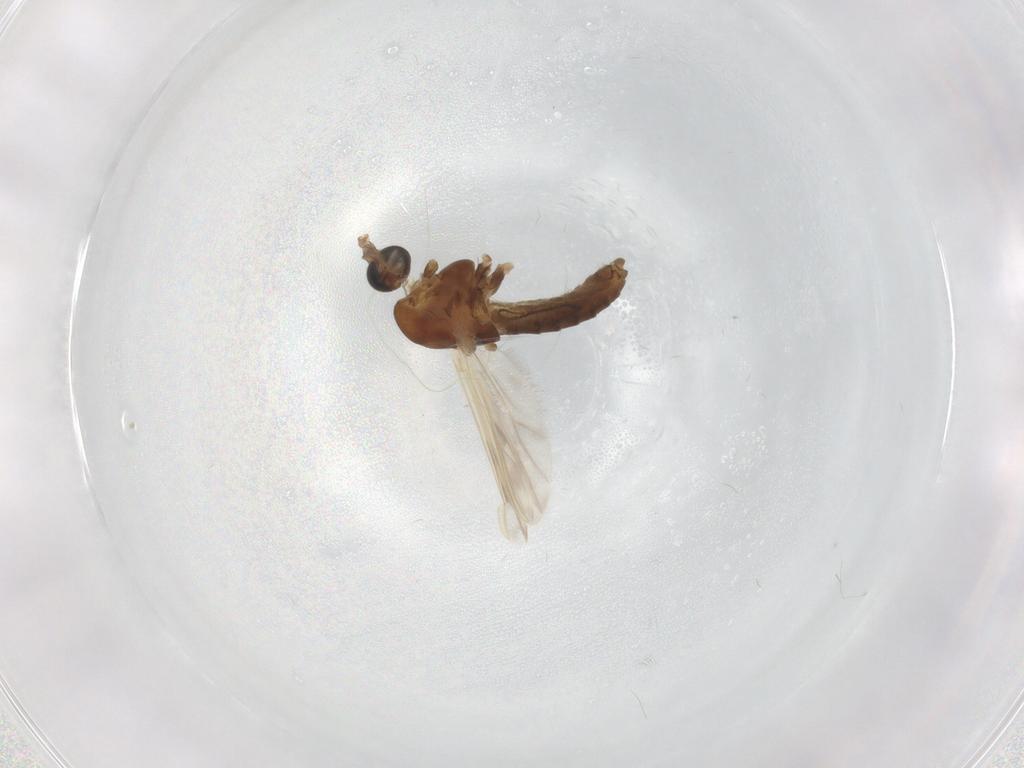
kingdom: Animalia
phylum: Arthropoda
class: Insecta
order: Diptera
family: Chironomidae
